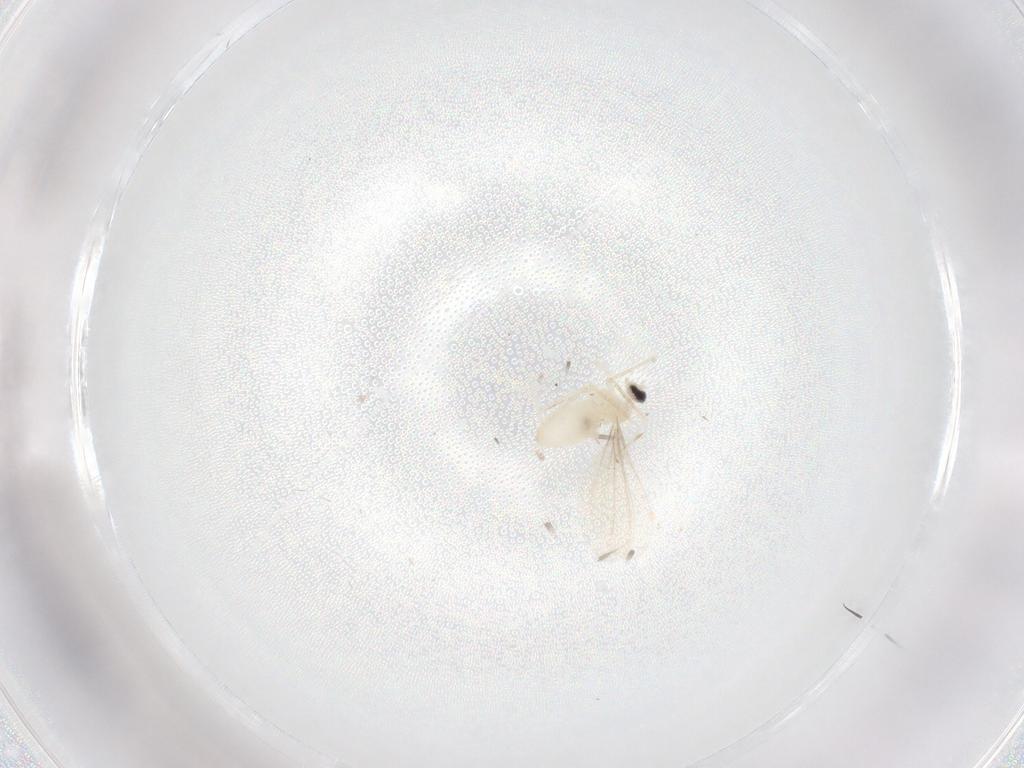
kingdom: Animalia
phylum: Arthropoda
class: Insecta
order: Diptera
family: Cecidomyiidae
